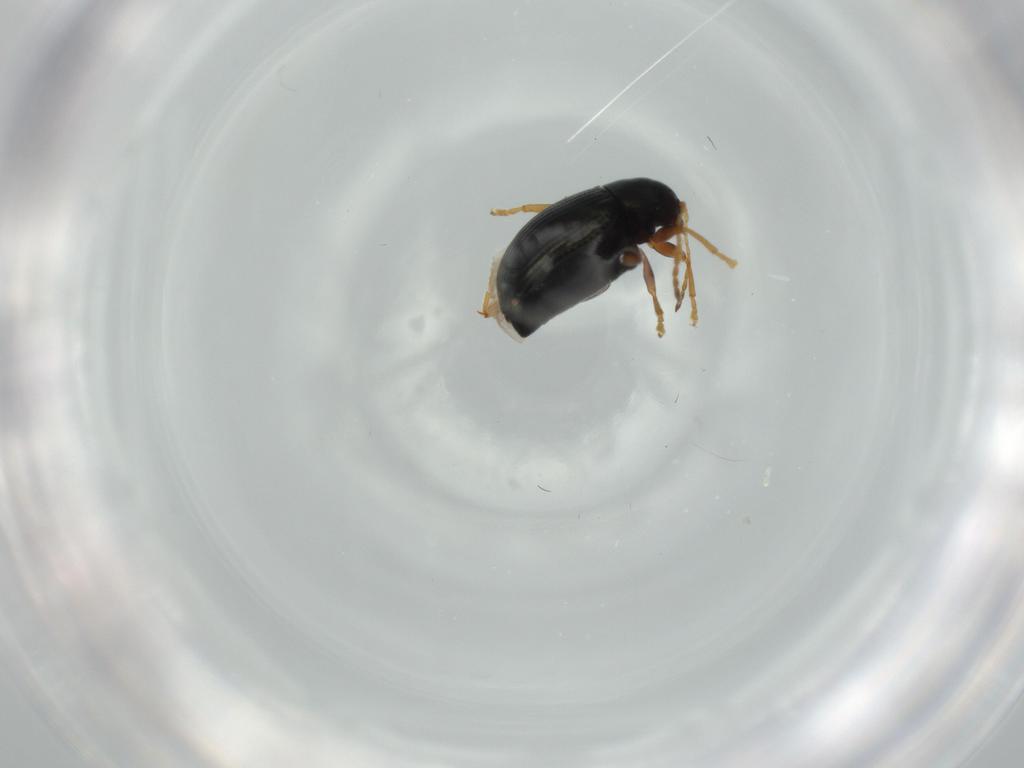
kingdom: Animalia
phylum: Arthropoda
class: Insecta
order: Coleoptera
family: Chrysomelidae
